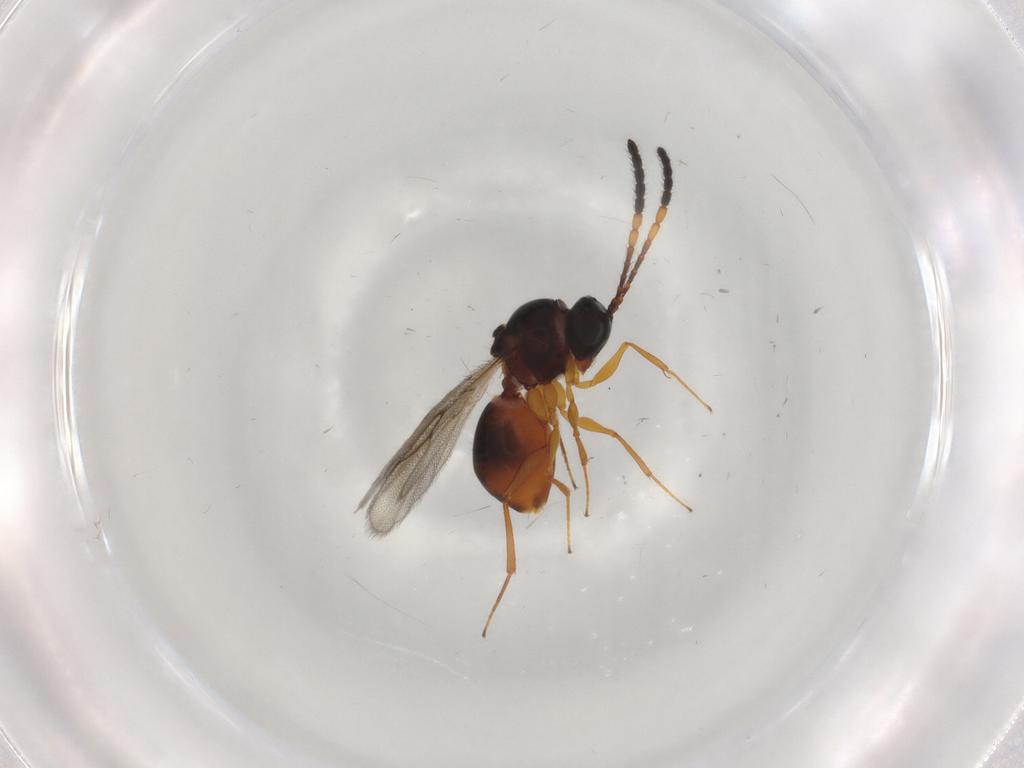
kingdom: Animalia
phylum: Arthropoda
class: Insecta
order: Hymenoptera
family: Figitidae
